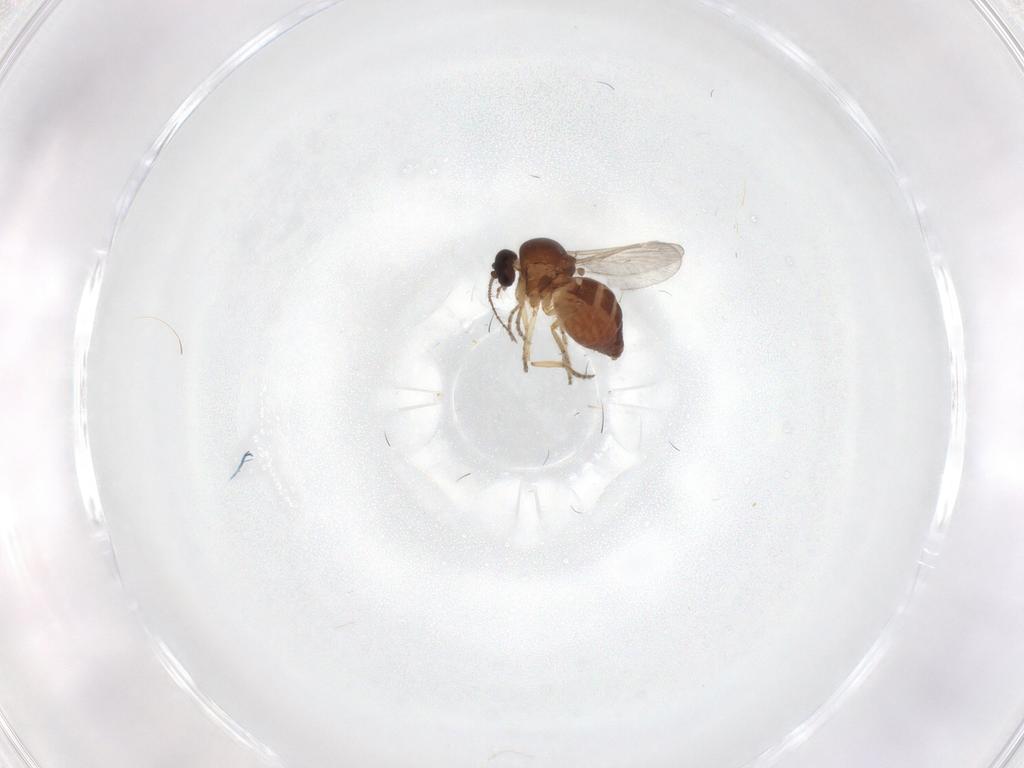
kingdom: Animalia
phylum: Arthropoda
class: Insecta
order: Diptera
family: Ceratopogonidae
